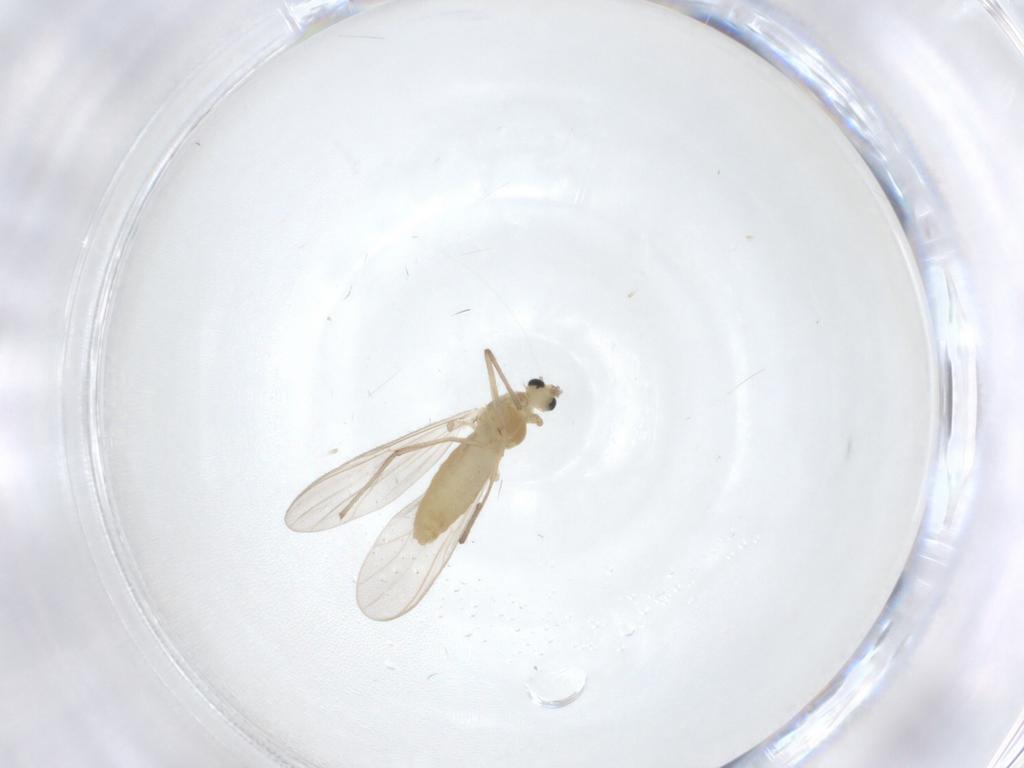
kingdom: Animalia
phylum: Arthropoda
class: Insecta
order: Diptera
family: Chironomidae
